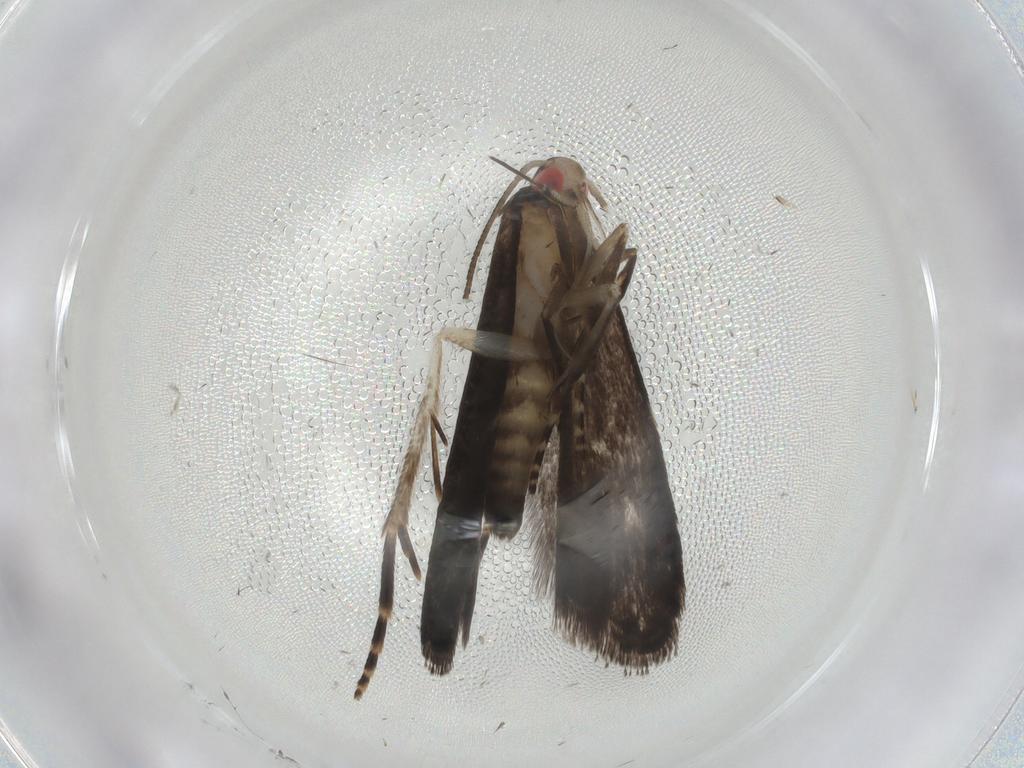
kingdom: Animalia
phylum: Arthropoda
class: Insecta
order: Lepidoptera
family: Gelechiidae
